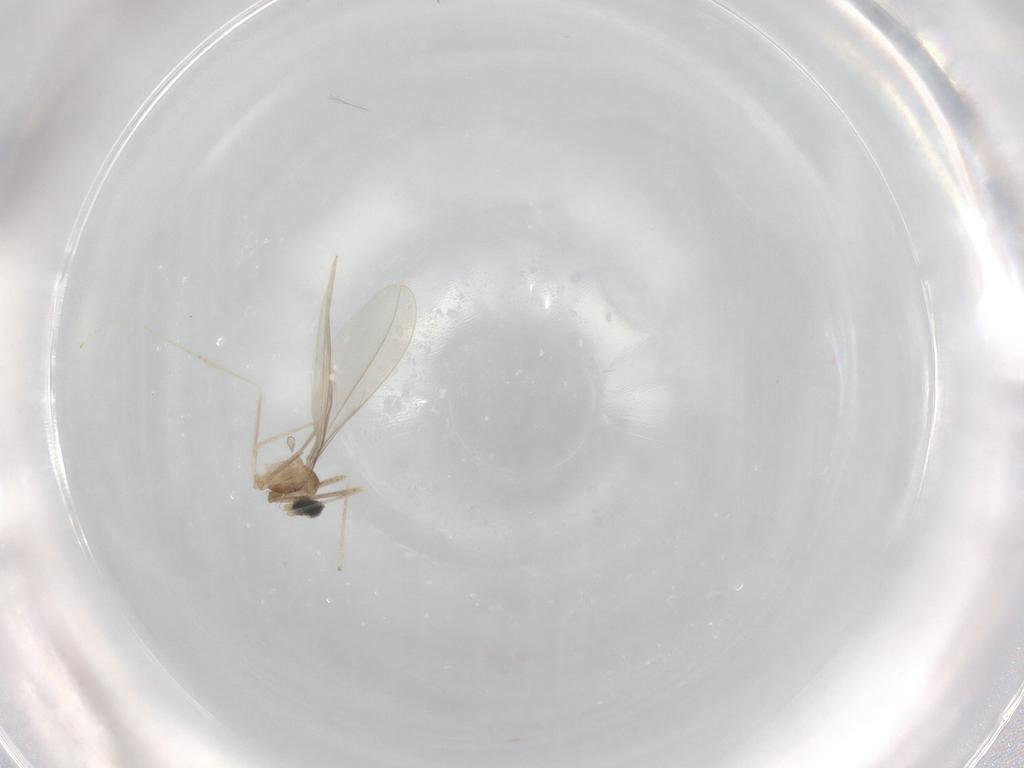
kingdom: Animalia
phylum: Arthropoda
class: Insecta
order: Diptera
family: Cecidomyiidae
